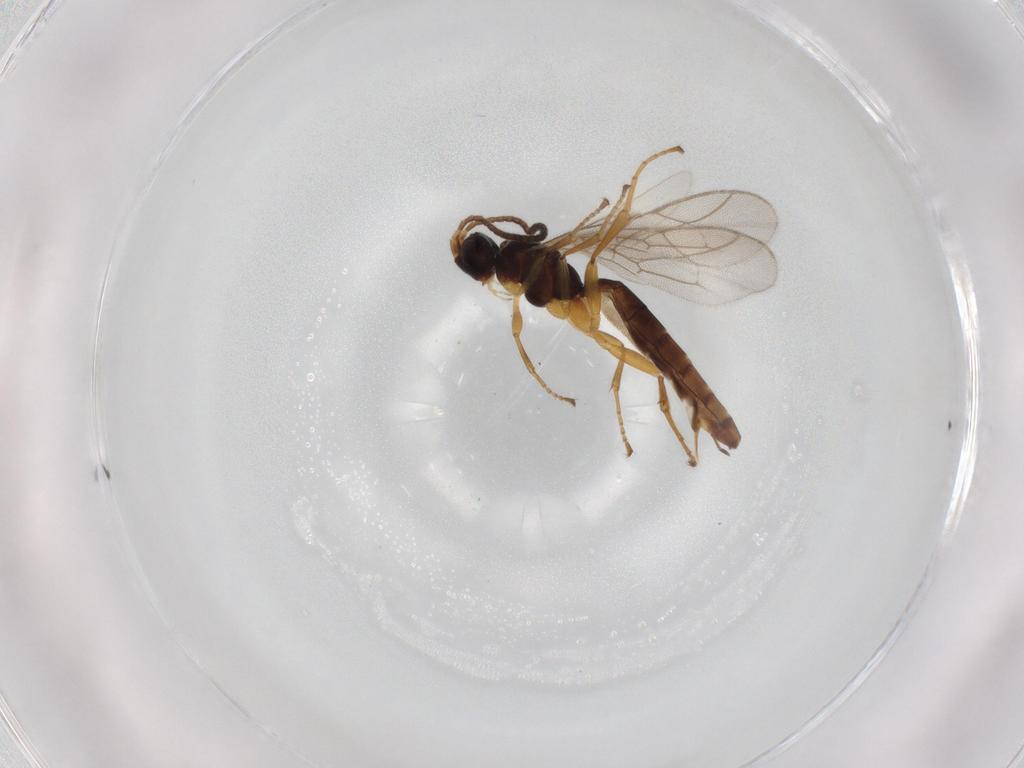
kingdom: Animalia
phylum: Arthropoda
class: Insecta
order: Hymenoptera
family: Ichneumonidae
